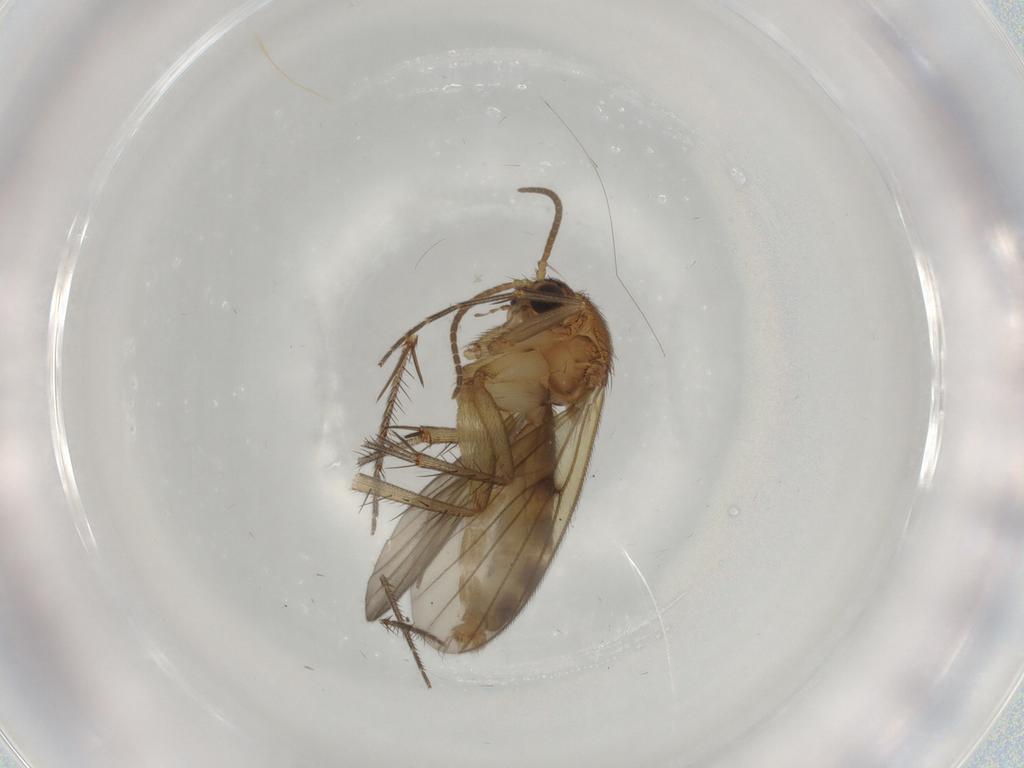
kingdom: Animalia
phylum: Arthropoda
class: Insecta
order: Diptera
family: Mycetophilidae
